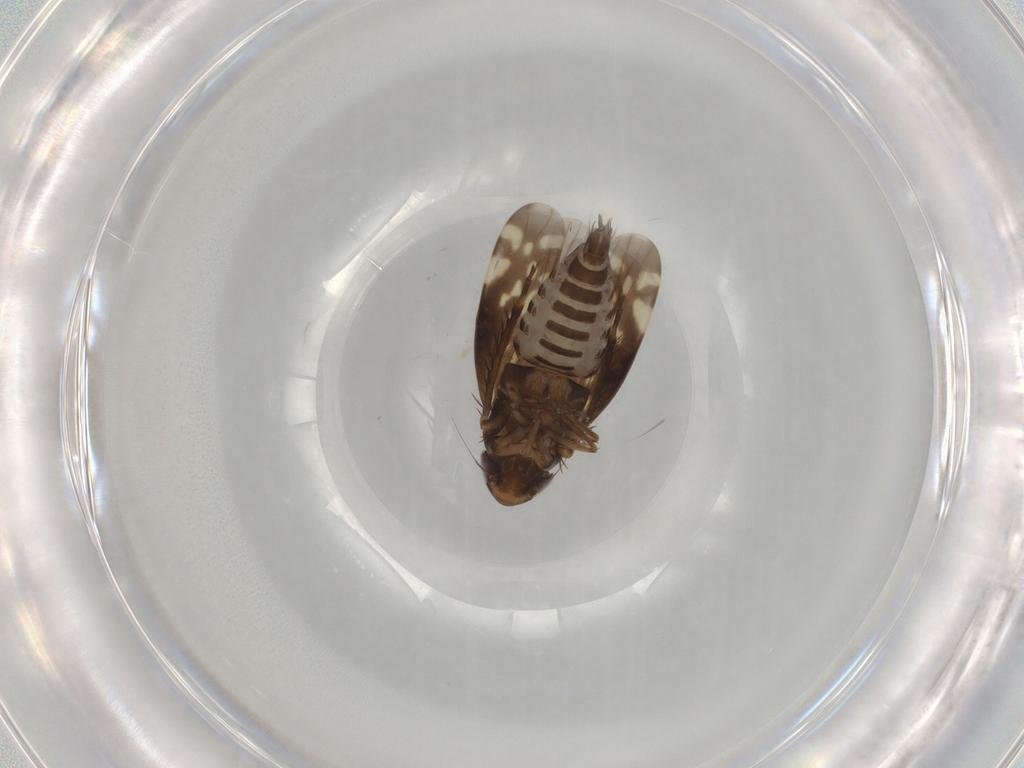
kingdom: Animalia
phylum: Arthropoda
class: Insecta
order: Hemiptera
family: Cicadellidae
